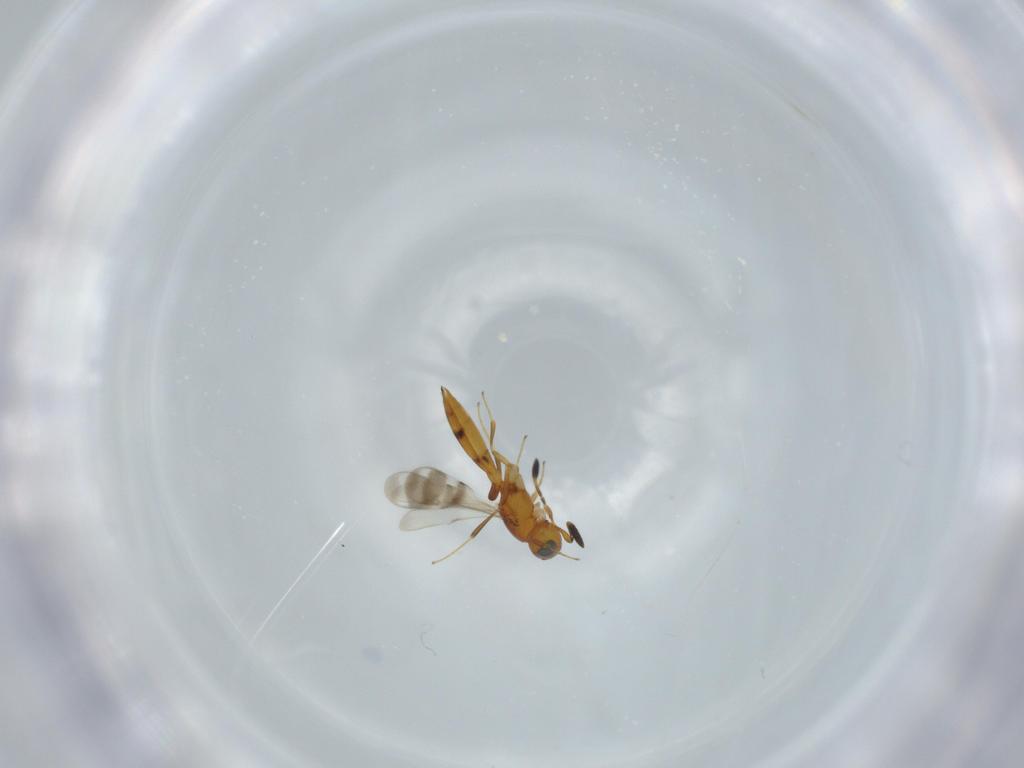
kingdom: Animalia
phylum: Arthropoda
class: Insecta
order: Hymenoptera
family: Scelionidae
